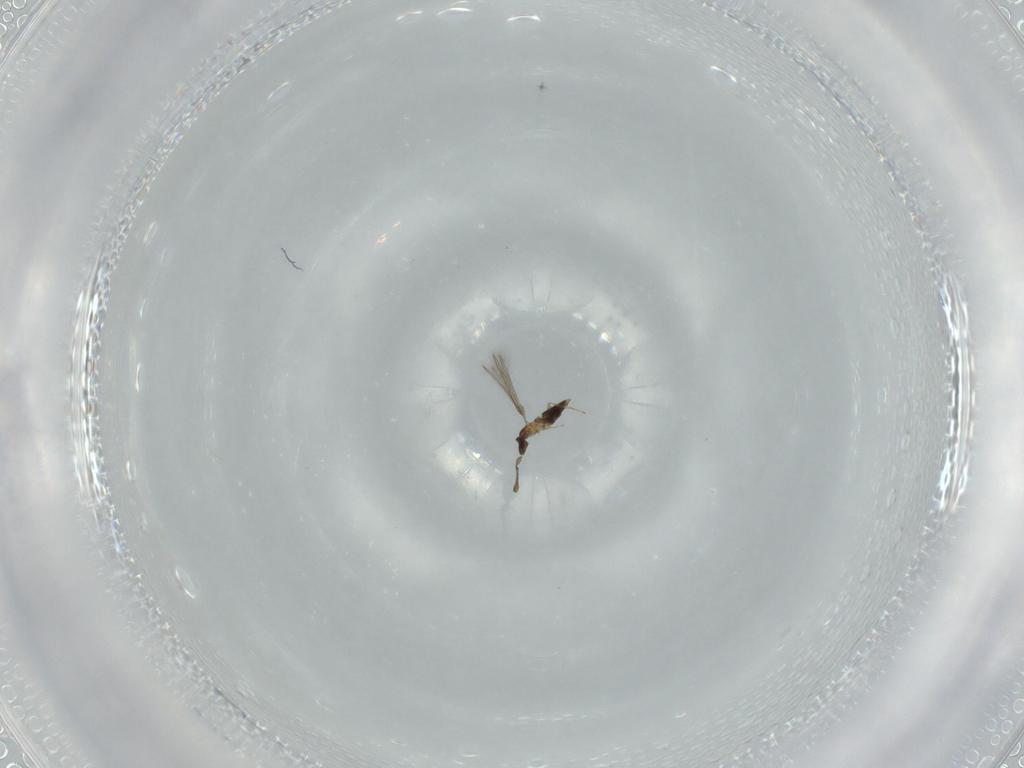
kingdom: Animalia
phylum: Arthropoda
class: Insecta
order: Hymenoptera
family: Mymaridae
